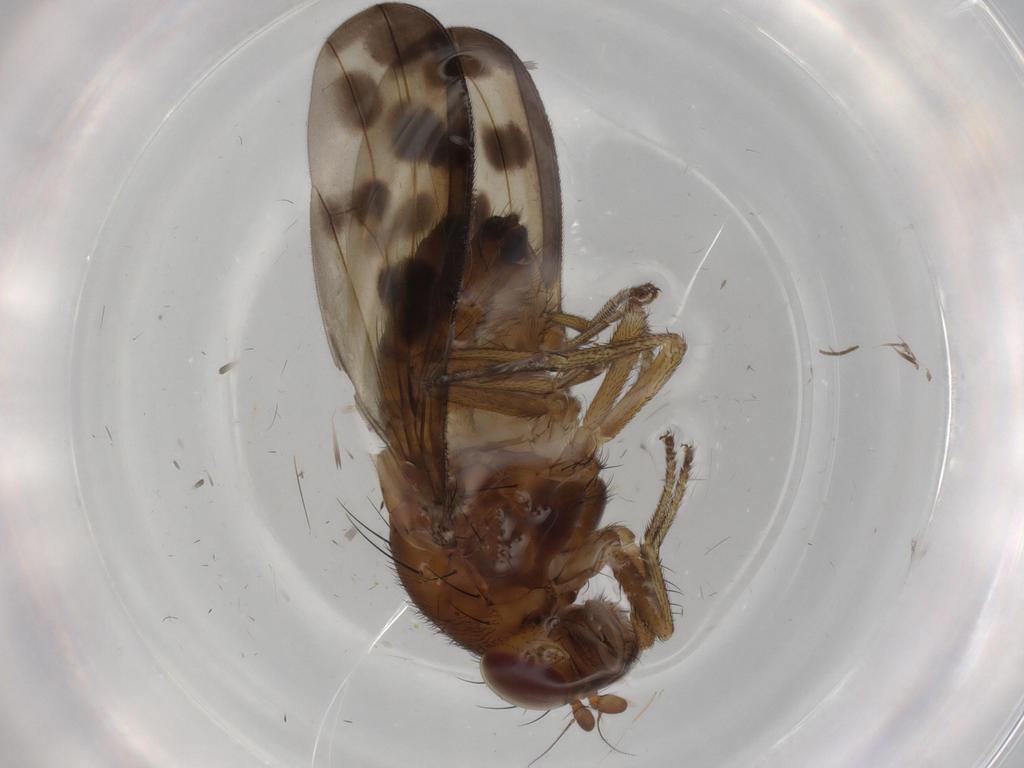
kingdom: Animalia
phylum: Arthropoda
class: Insecta
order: Diptera
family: Chironomidae
